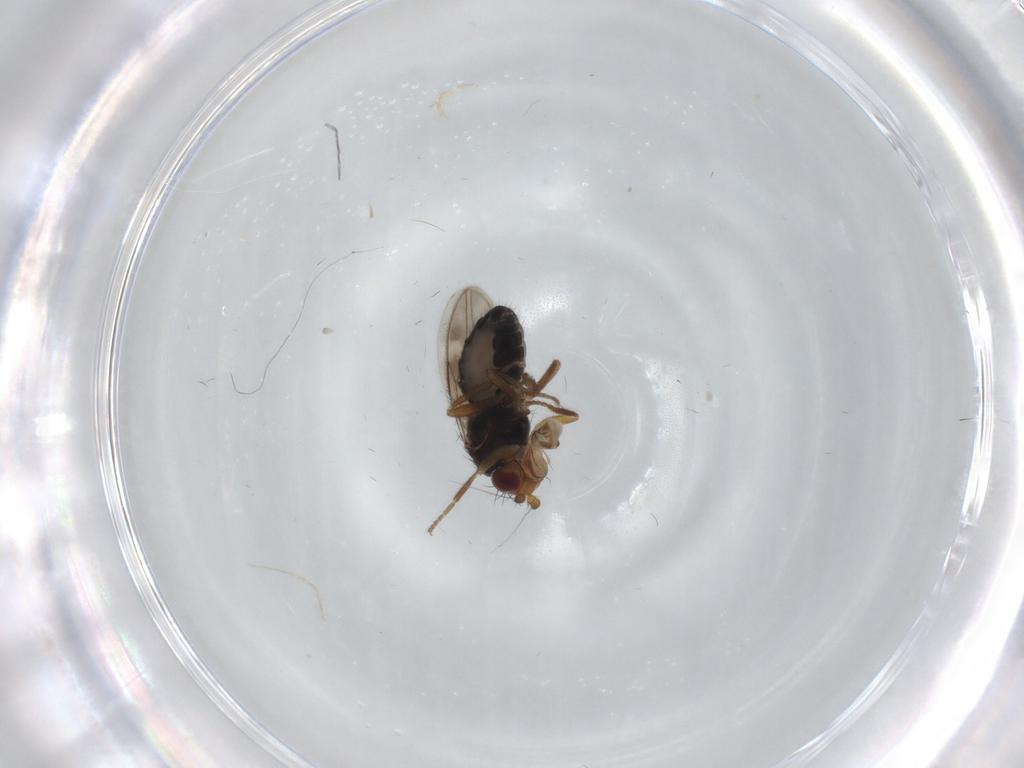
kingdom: Animalia
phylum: Arthropoda
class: Insecta
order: Diptera
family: Sphaeroceridae
